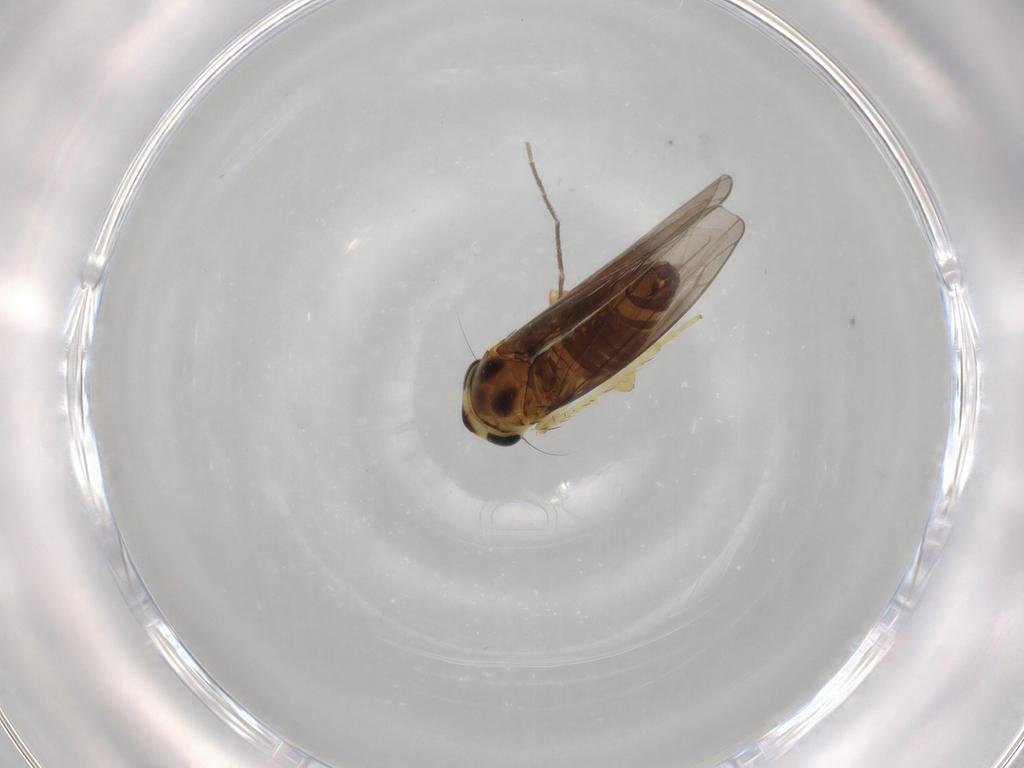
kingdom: Animalia
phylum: Arthropoda
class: Insecta
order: Hemiptera
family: Cicadellidae
